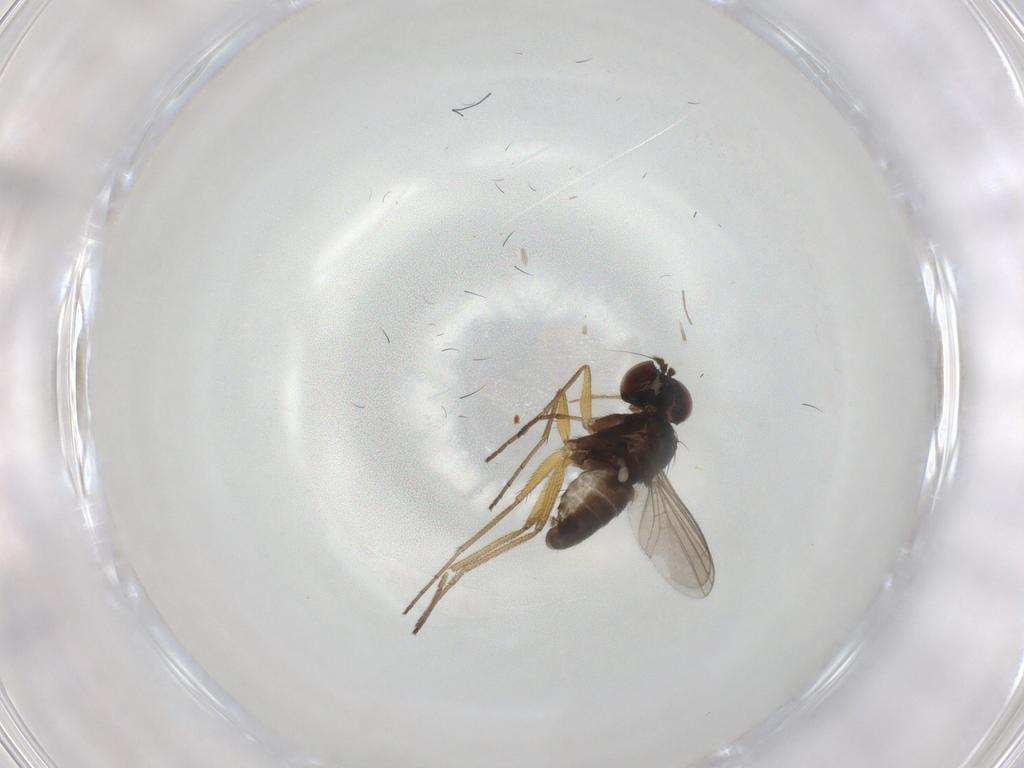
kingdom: Animalia
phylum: Arthropoda
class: Insecta
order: Diptera
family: Dolichopodidae
